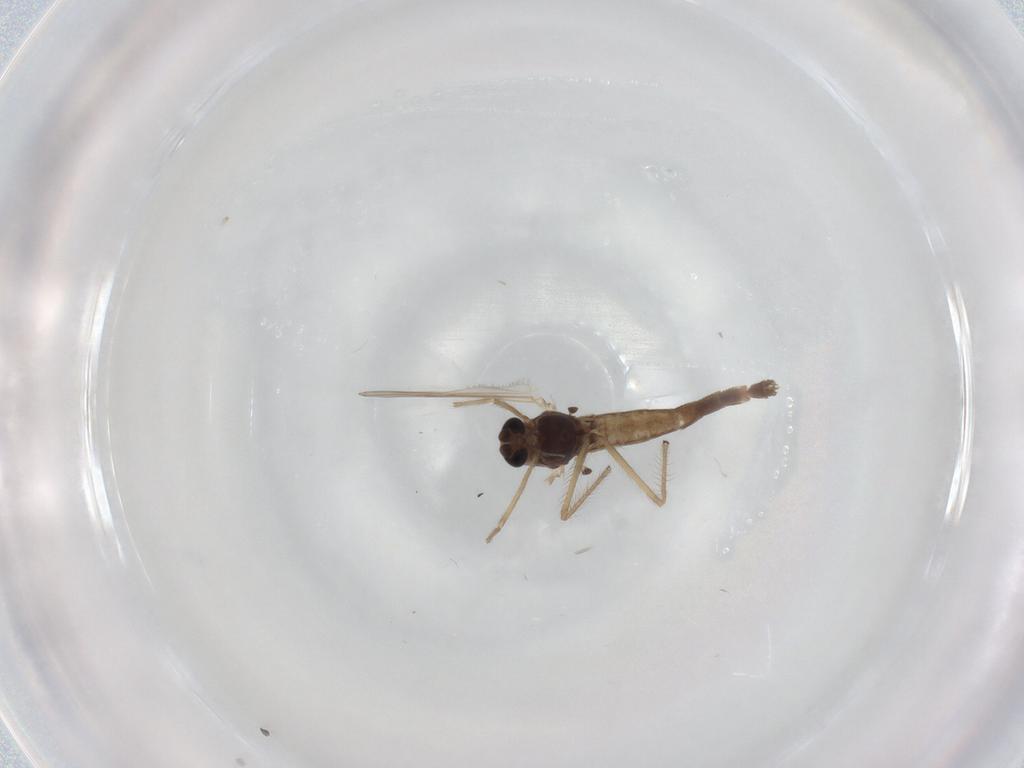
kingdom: Animalia
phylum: Arthropoda
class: Insecta
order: Diptera
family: Chironomidae
